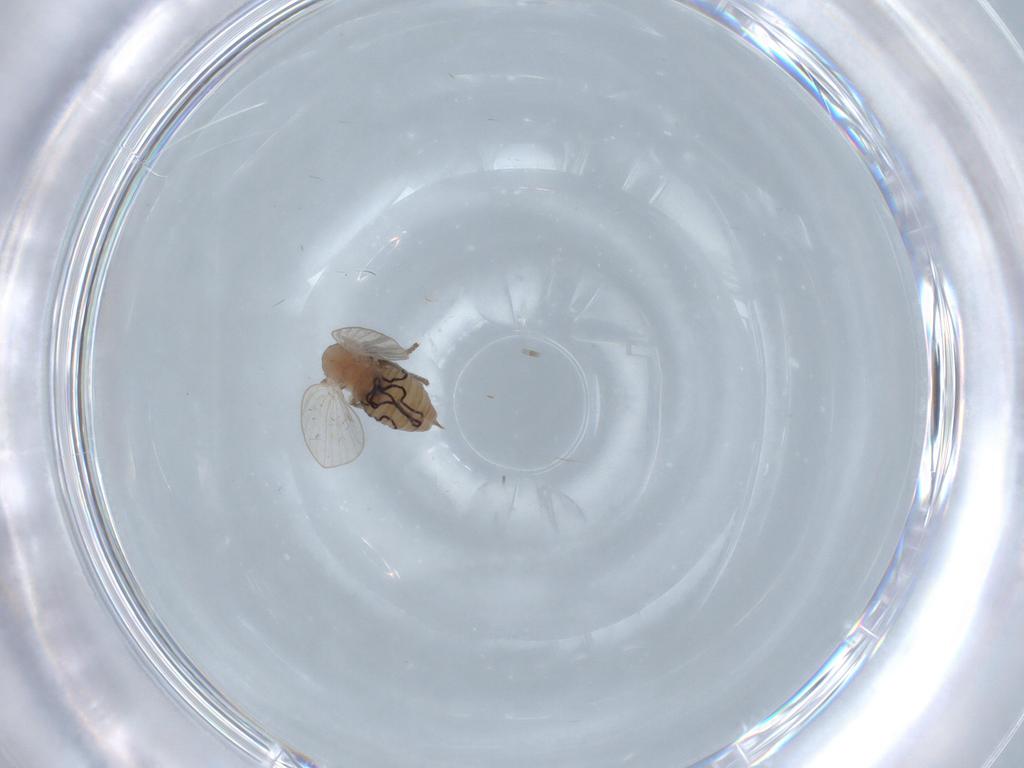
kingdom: Animalia
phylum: Arthropoda
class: Insecta
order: Diptera
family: Psychodidae
